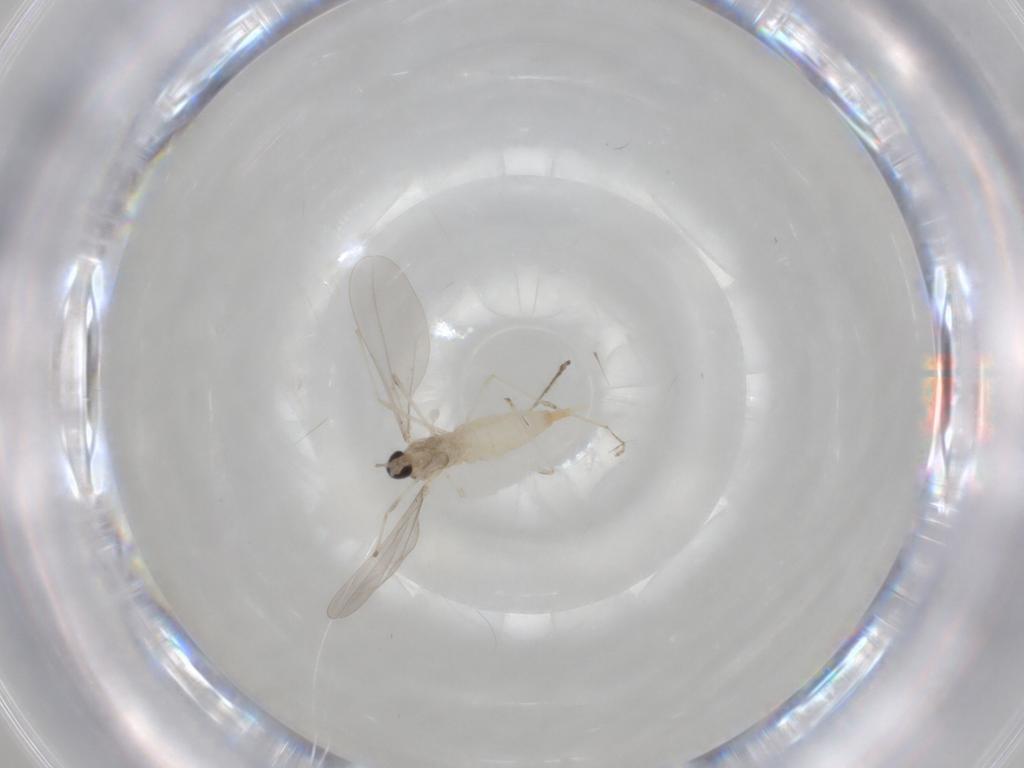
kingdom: Animalia
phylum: Arthropoda
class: Insecta
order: Diptera
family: Cecidomyiidae
